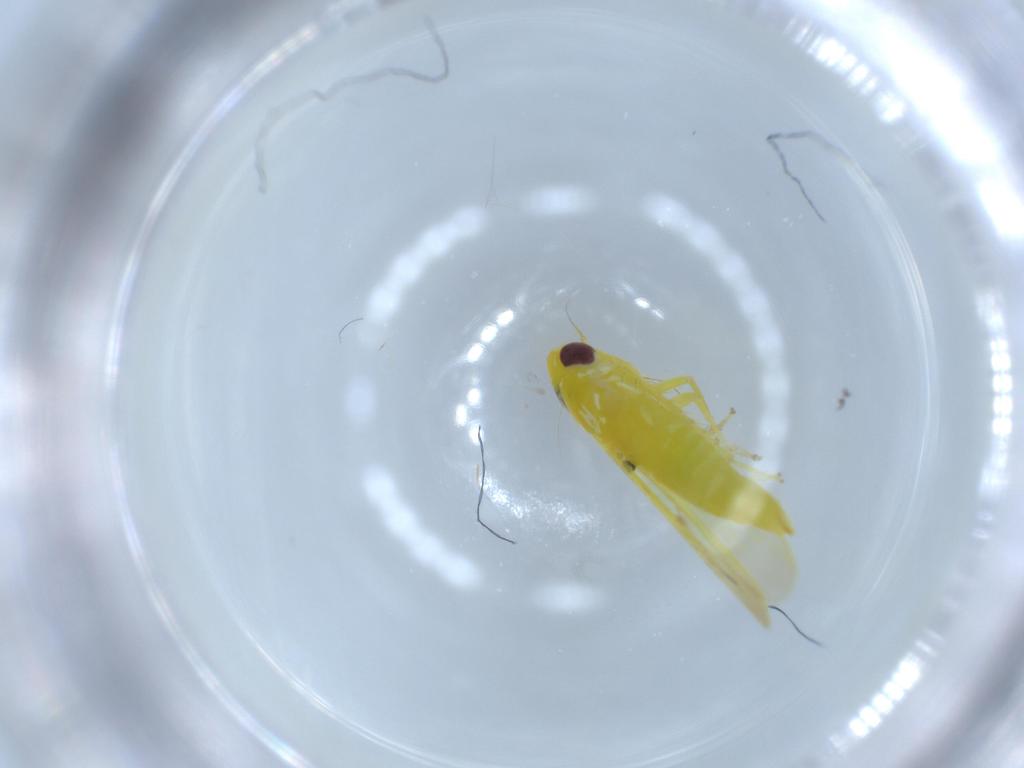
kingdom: Animalia
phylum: Arthropoda
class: Insecta
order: Hemiptera
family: Cicadellidae
